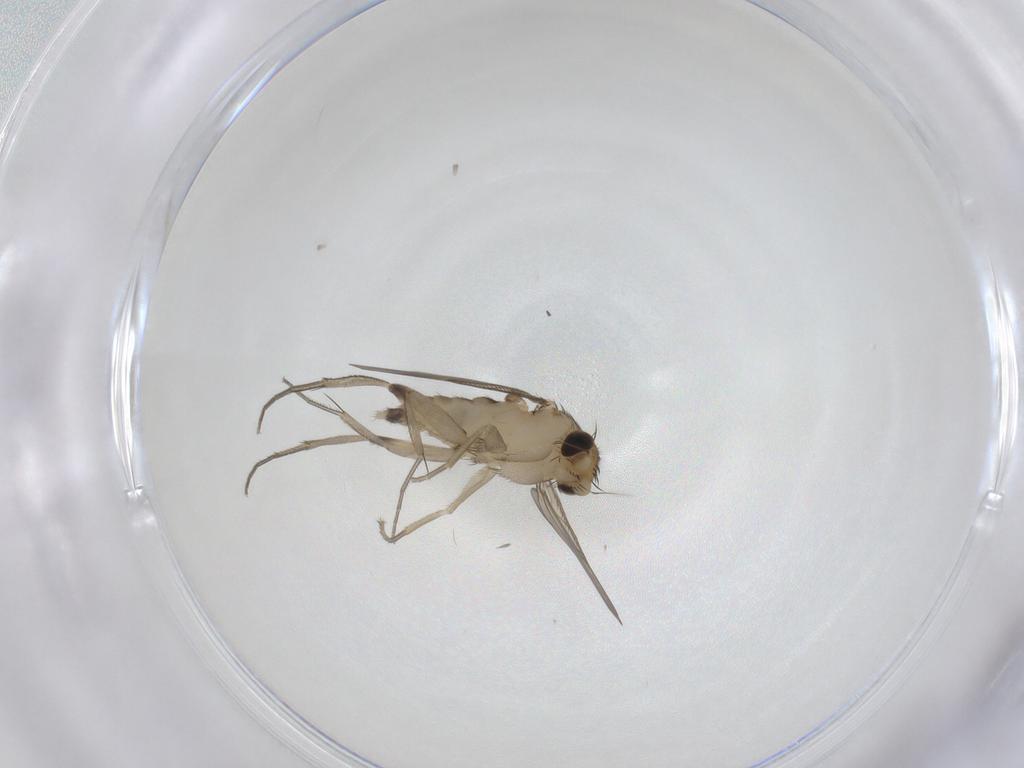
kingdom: Animalia
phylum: Arthropoda
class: Insecta
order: Diptera
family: Phoridae
